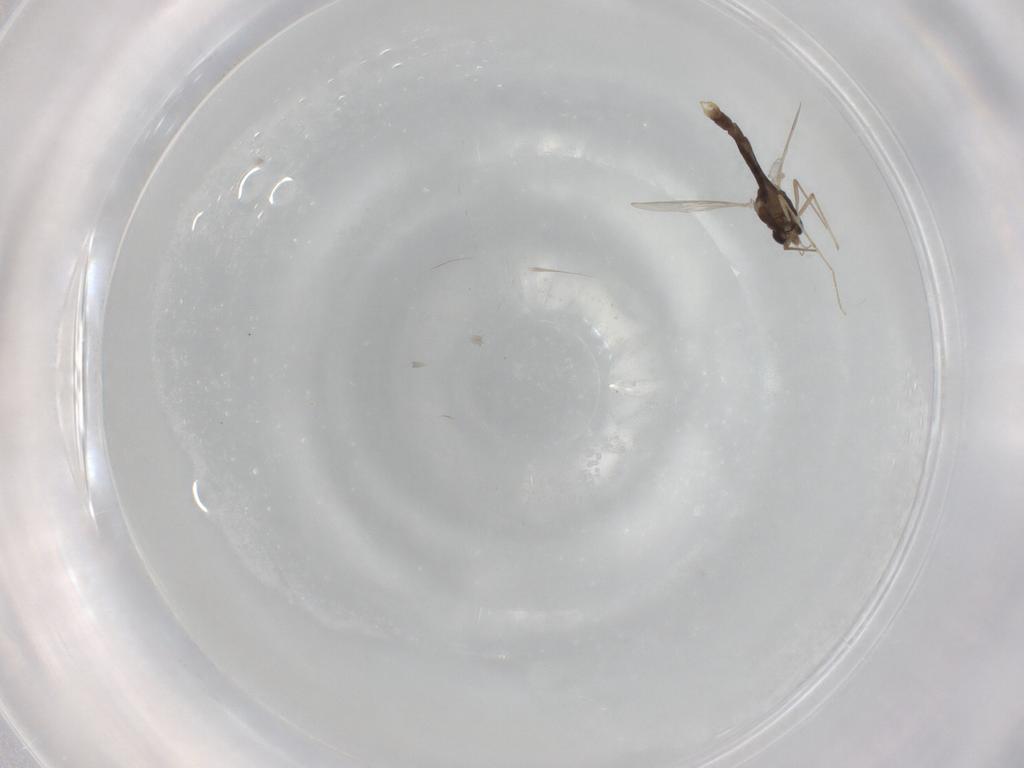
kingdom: Animalia
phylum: Arthropoda
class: Insecta
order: Diptera
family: Chironomidae
